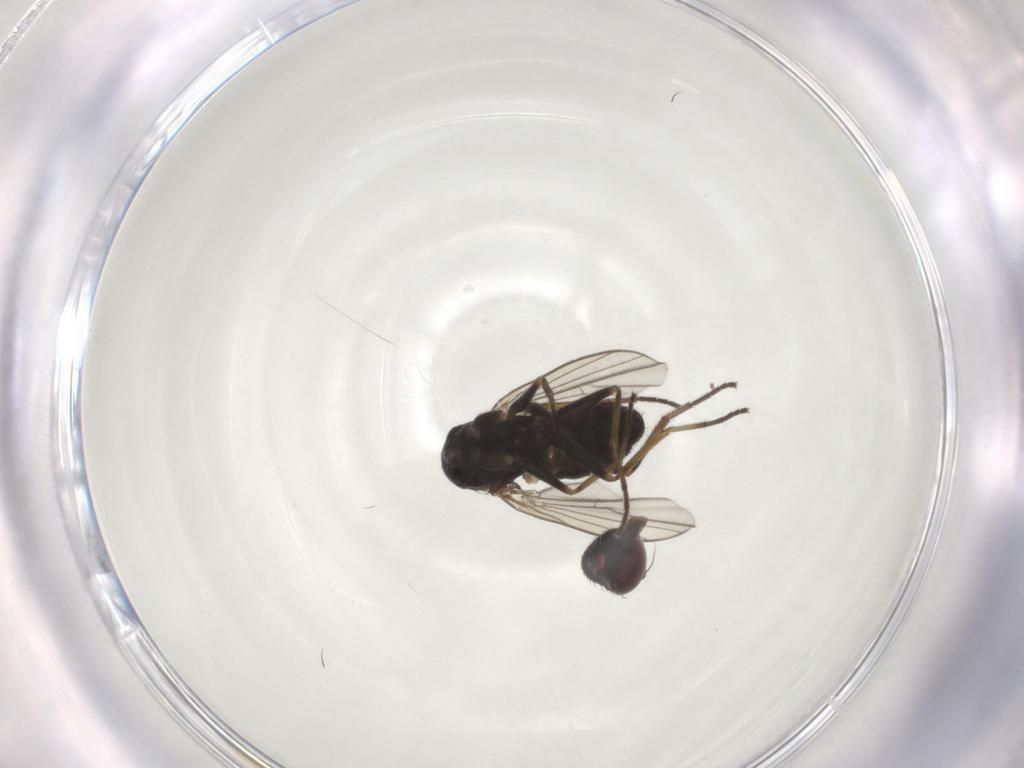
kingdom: Animalia
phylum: Arthropoda
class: Insecta
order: Diptera
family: Dolichopodidae
